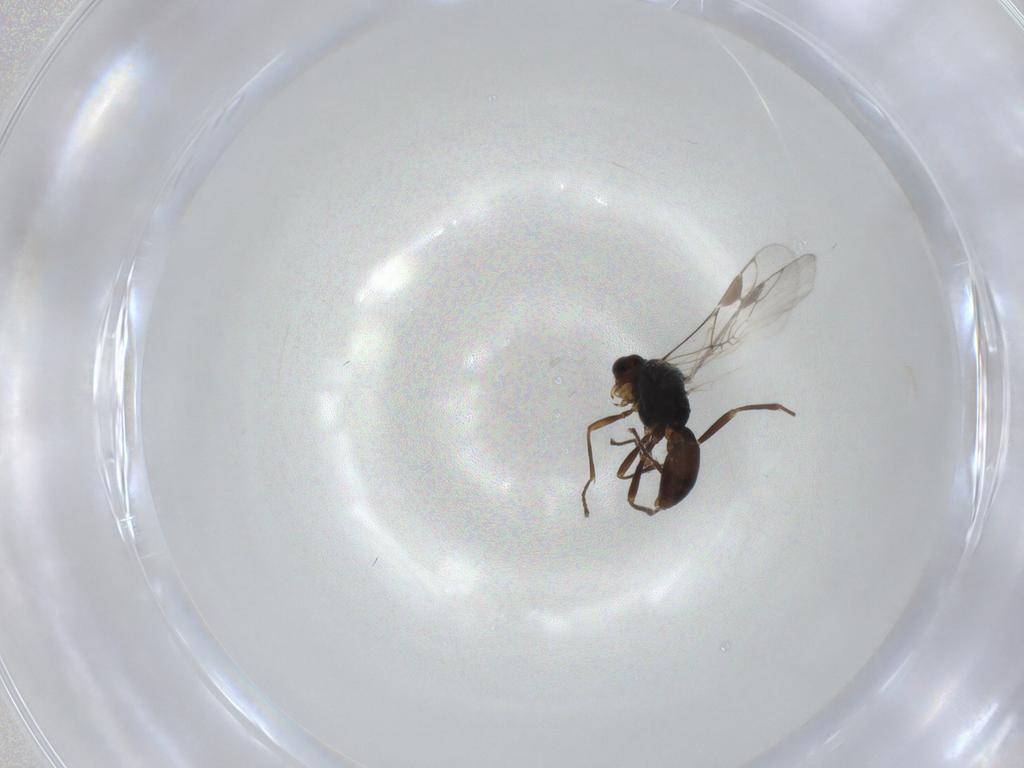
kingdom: Animalia
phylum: Arthropoda
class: Insecta
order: Hymenoptera
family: Braconidae
